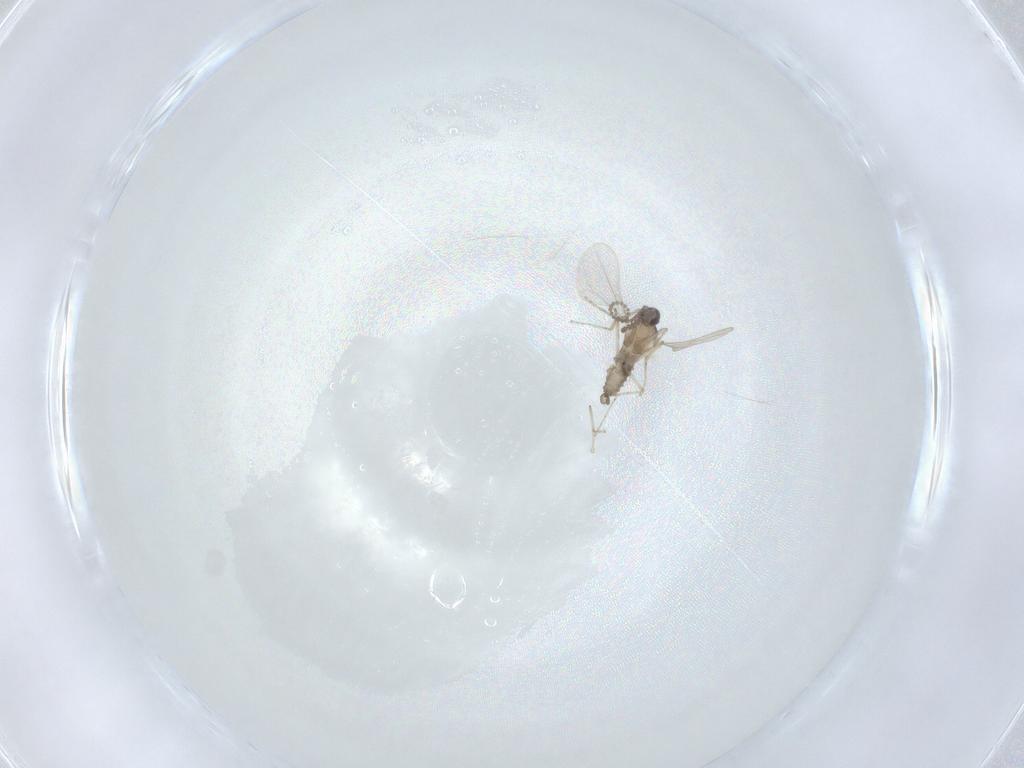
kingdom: Animalia
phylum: Arthropoda
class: Insecta
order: Diptera
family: Cecidomyiidae
